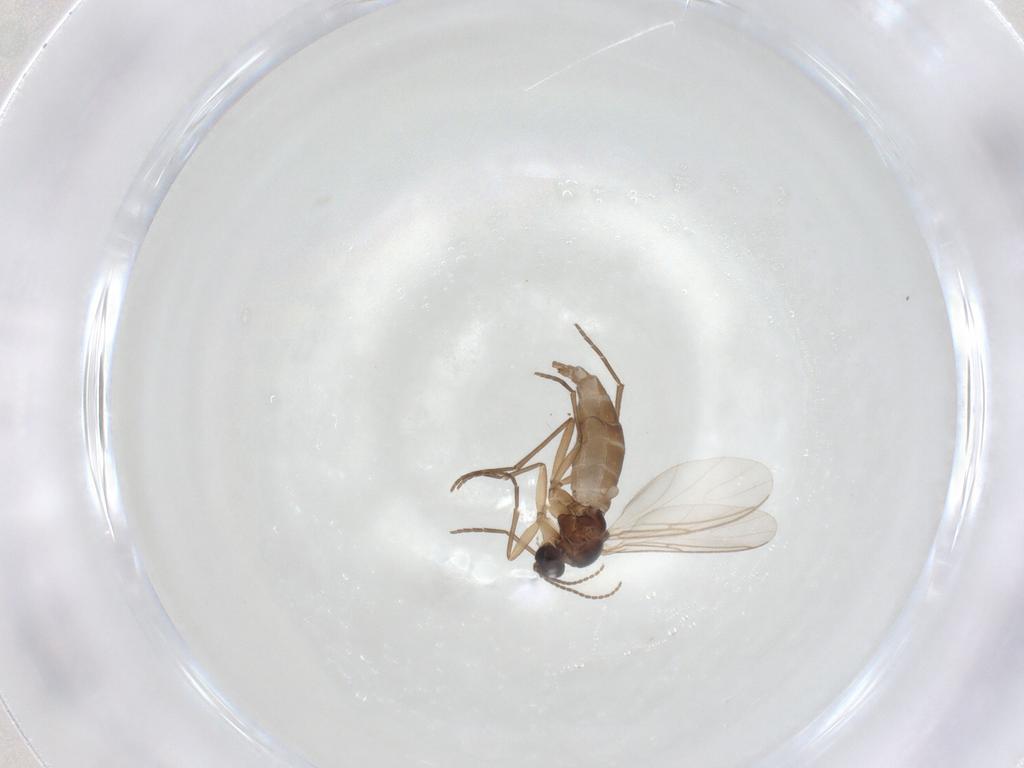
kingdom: Animalia
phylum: Arthropoda
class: Insecta
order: Diptera
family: Sciaridae
